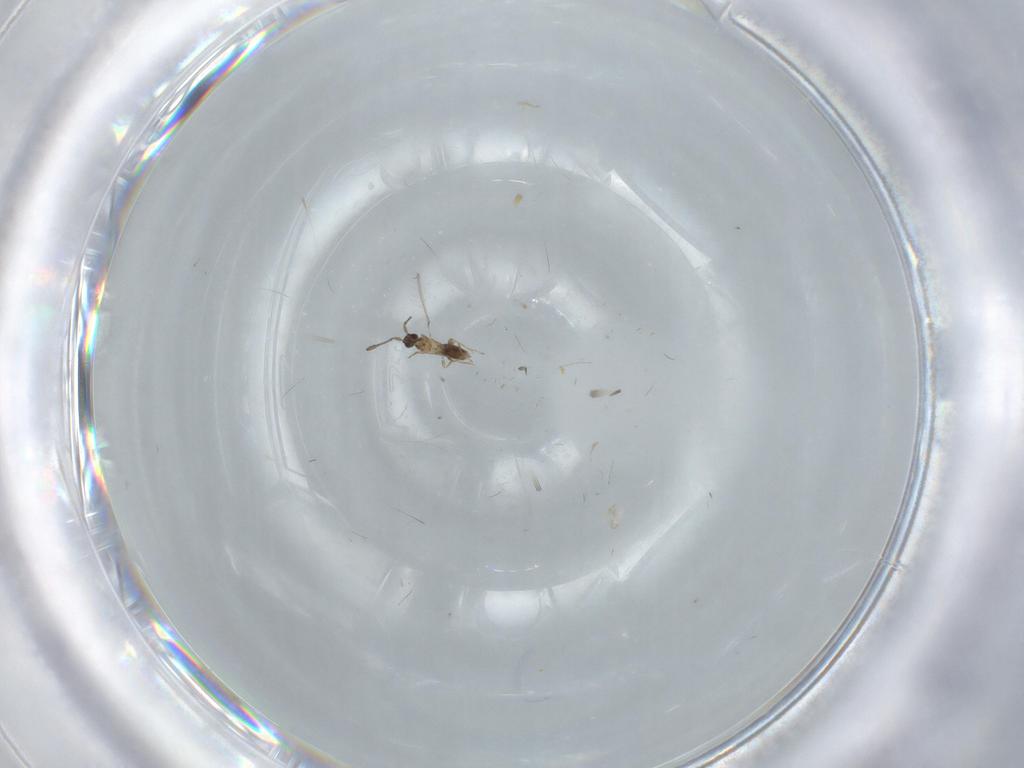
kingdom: Animalia
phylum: Arthropoda
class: Insecta
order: Hymenoptera
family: Mymaridae
